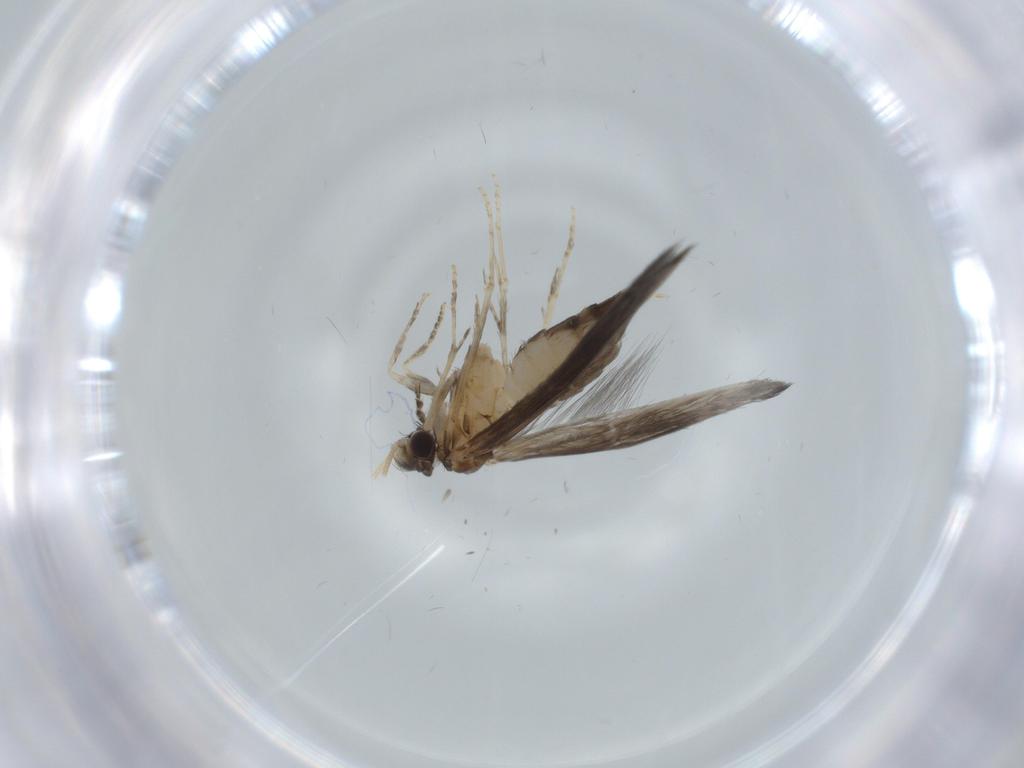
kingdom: Animalia
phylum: Arthropoda
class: Insecta
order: Trichoptera
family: Hydroptilidae
